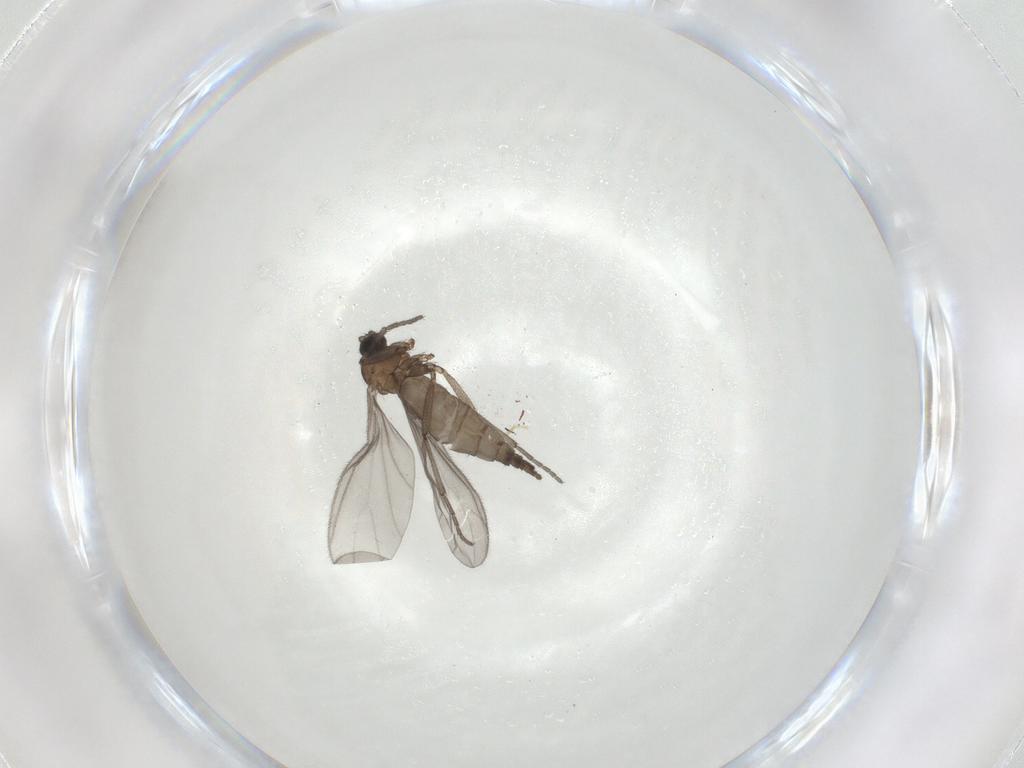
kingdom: Animalia
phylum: Arthropoda
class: Insecta
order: Diptera
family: Sciaridae
